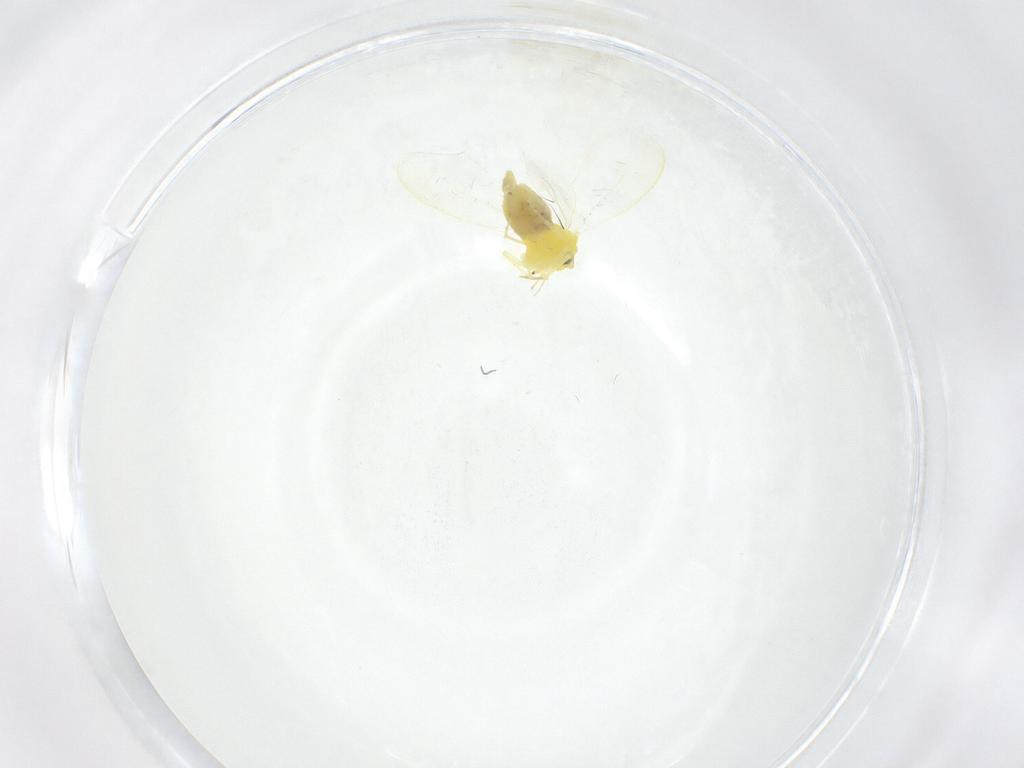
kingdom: Animalia
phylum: Arthropoda
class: Insecta
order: Hemiptera
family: Aleyrodidae
